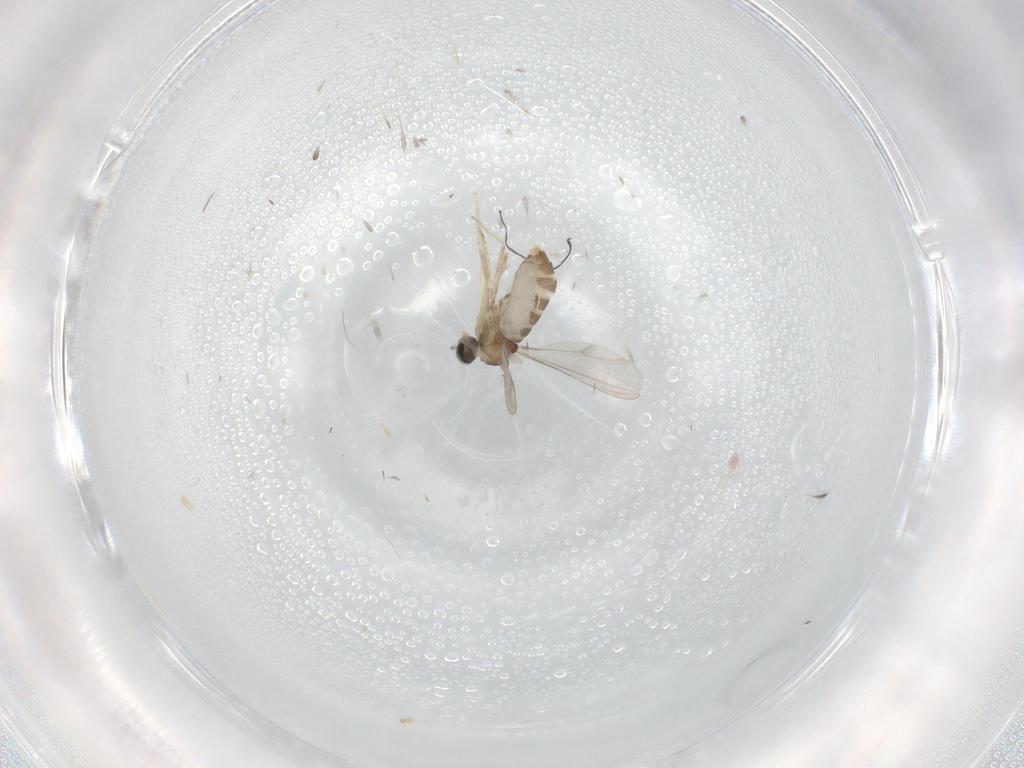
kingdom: Animalia
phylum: Arthropoda
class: Insecta
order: Diptera
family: Cecidomyiidae
